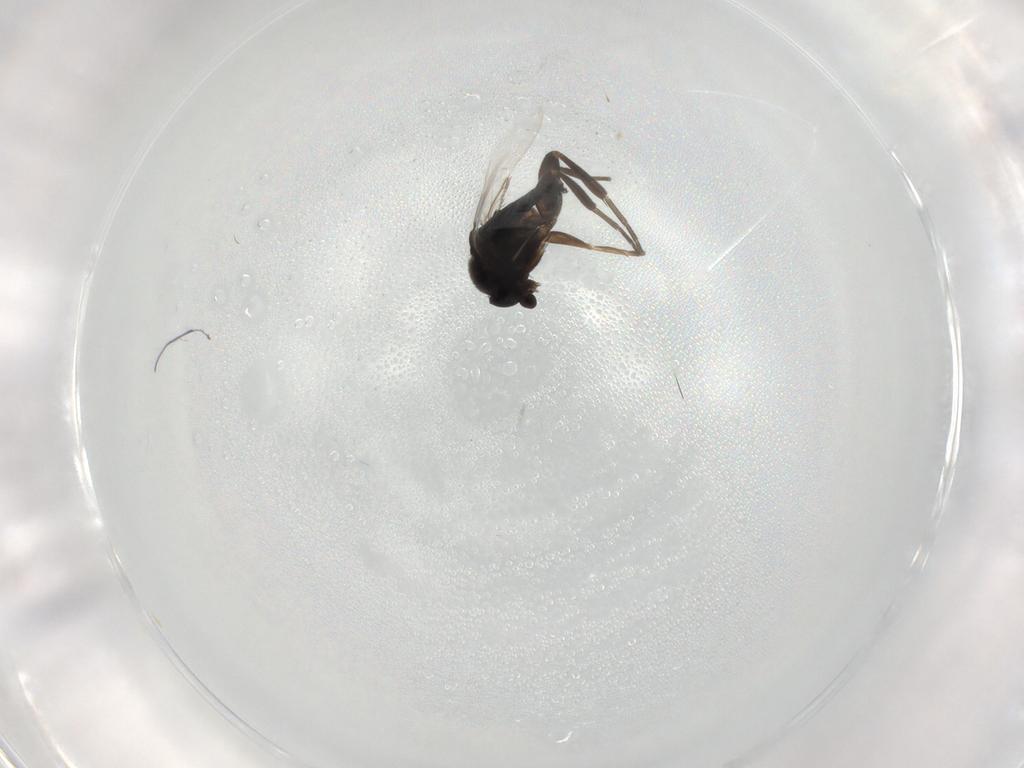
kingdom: Animalia
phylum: Arthropoda
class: Insecta
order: Diptera
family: Phoridae
